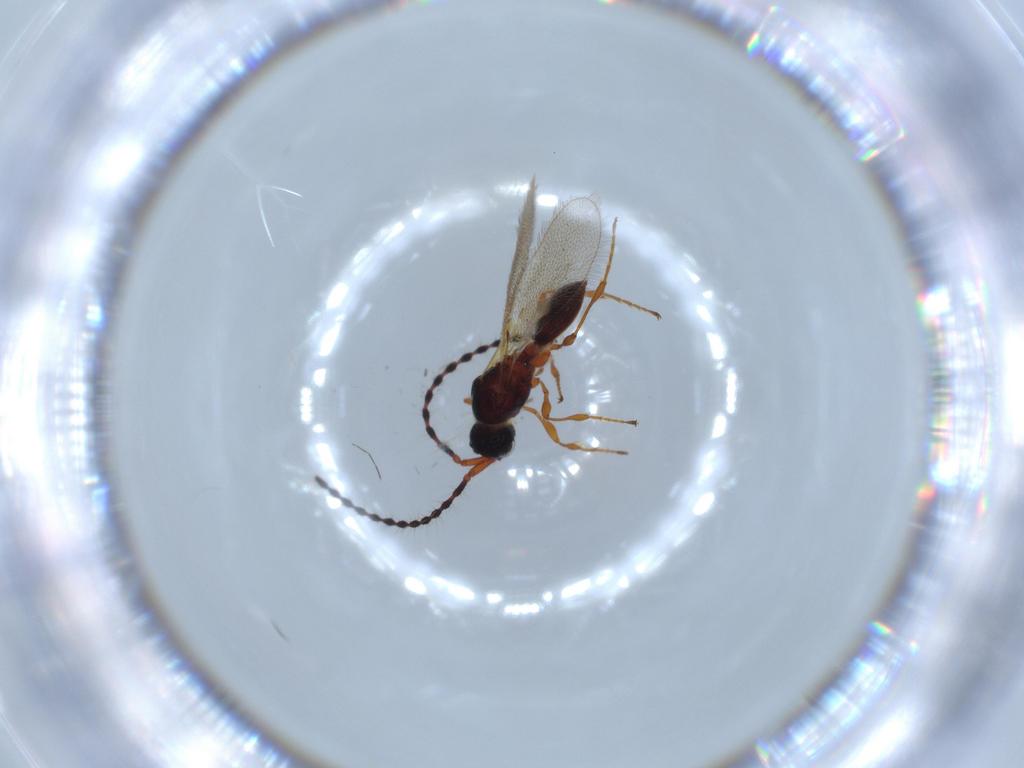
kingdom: Animalia
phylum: Arthropoda
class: Insecta
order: Hymenoptera
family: Diapriidae
